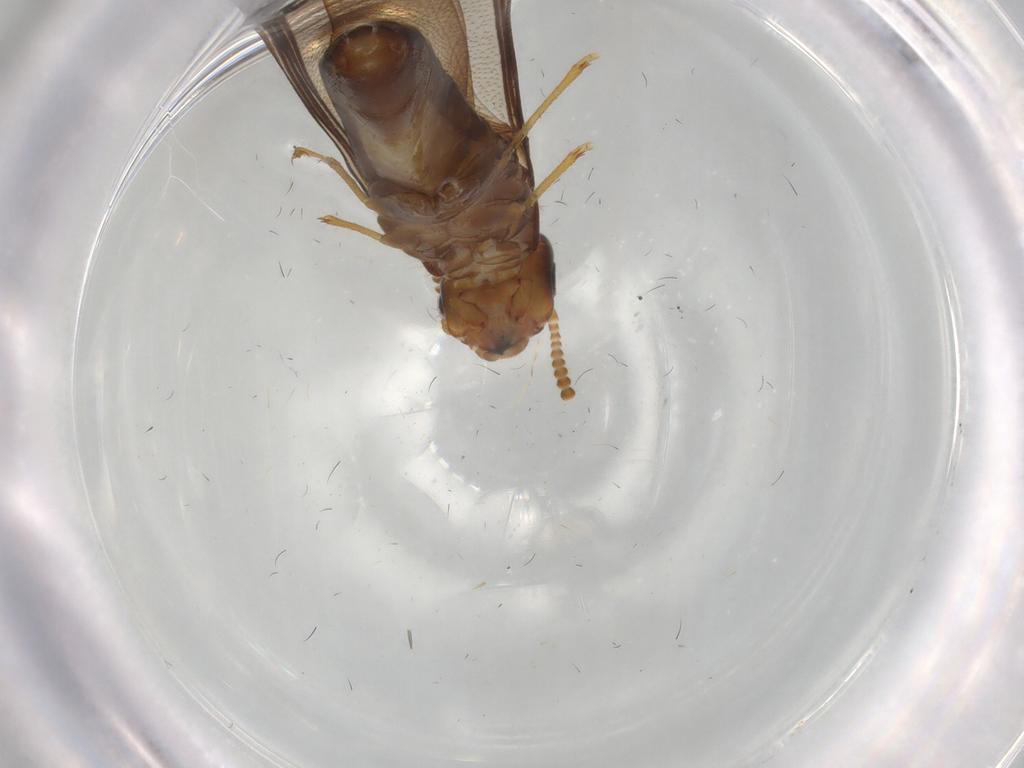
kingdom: Animalia
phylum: Arthropoda
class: Insecta
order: Blattodea
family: Kalotermitidae
